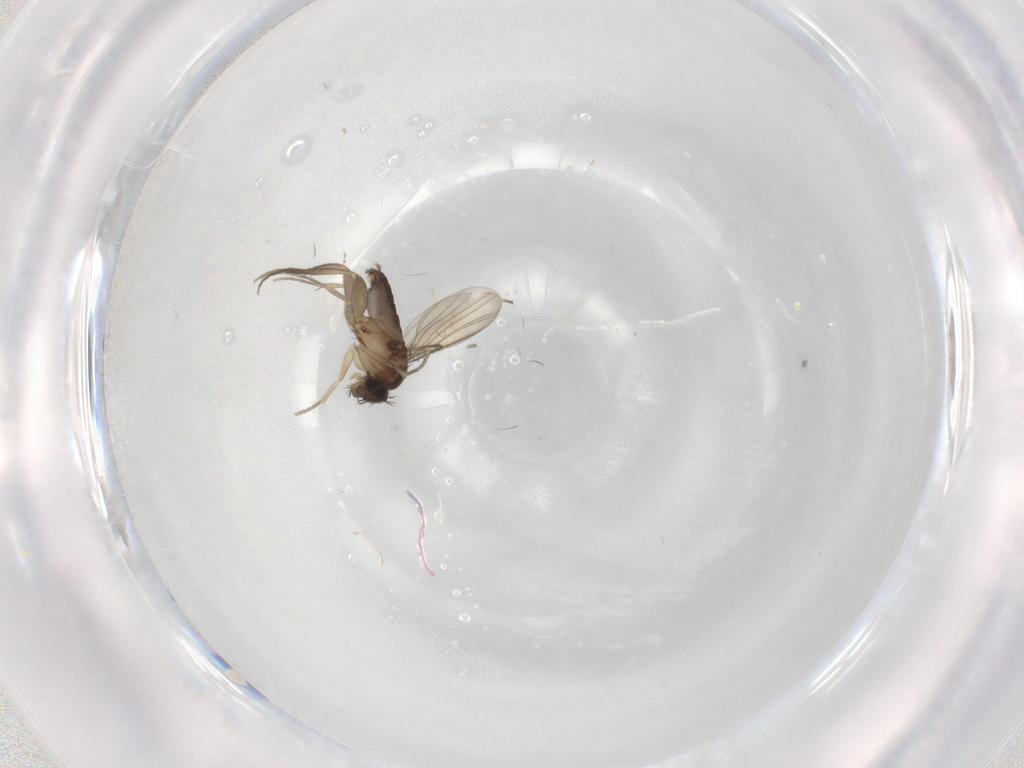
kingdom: Animalia
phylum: Arthropoda
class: Insecta
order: Diptera
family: Phoridae
